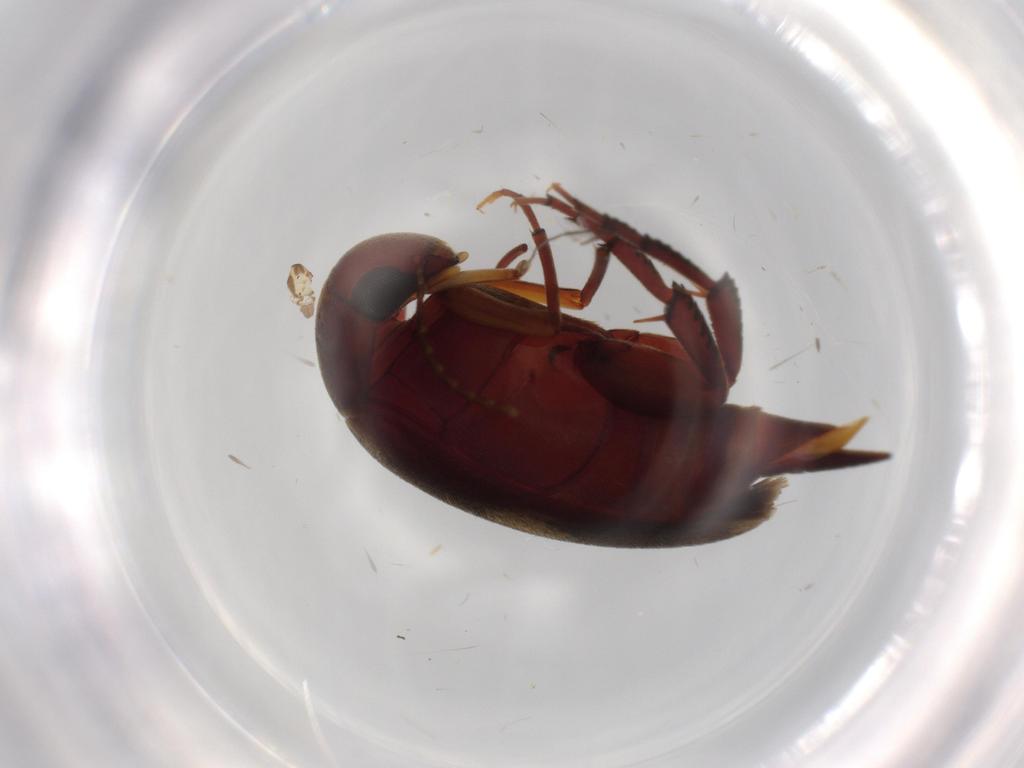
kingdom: Animalia
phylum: Arthropoda
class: Insecta
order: Coleoptera
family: Mordellidae
